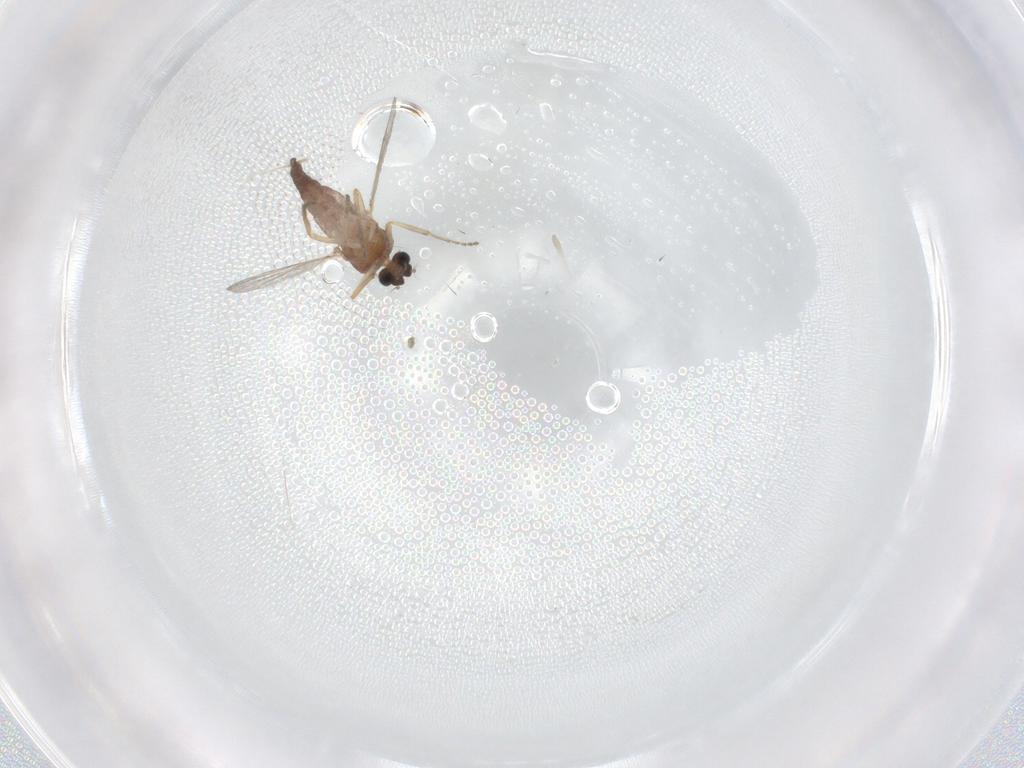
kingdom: Animalia
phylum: Arthropoda
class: Insecta
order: Diptera
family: Ceratopogonidae
